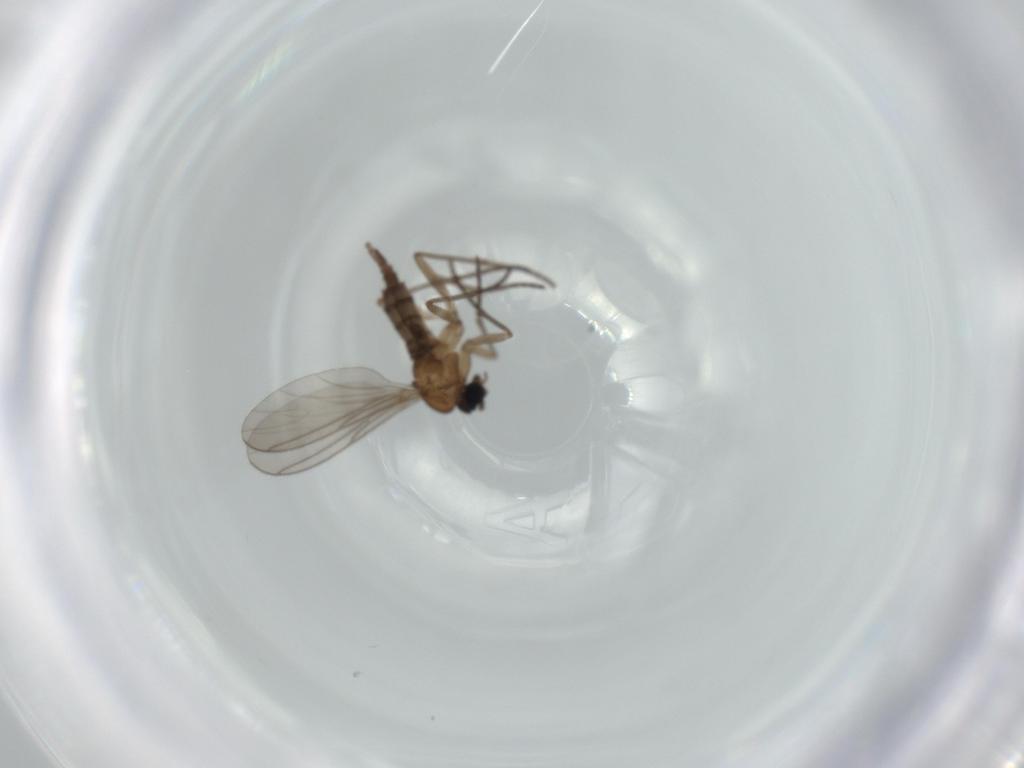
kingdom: Animalia
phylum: Arthropoda
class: Insecta
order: Diptera
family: Sciaridae
